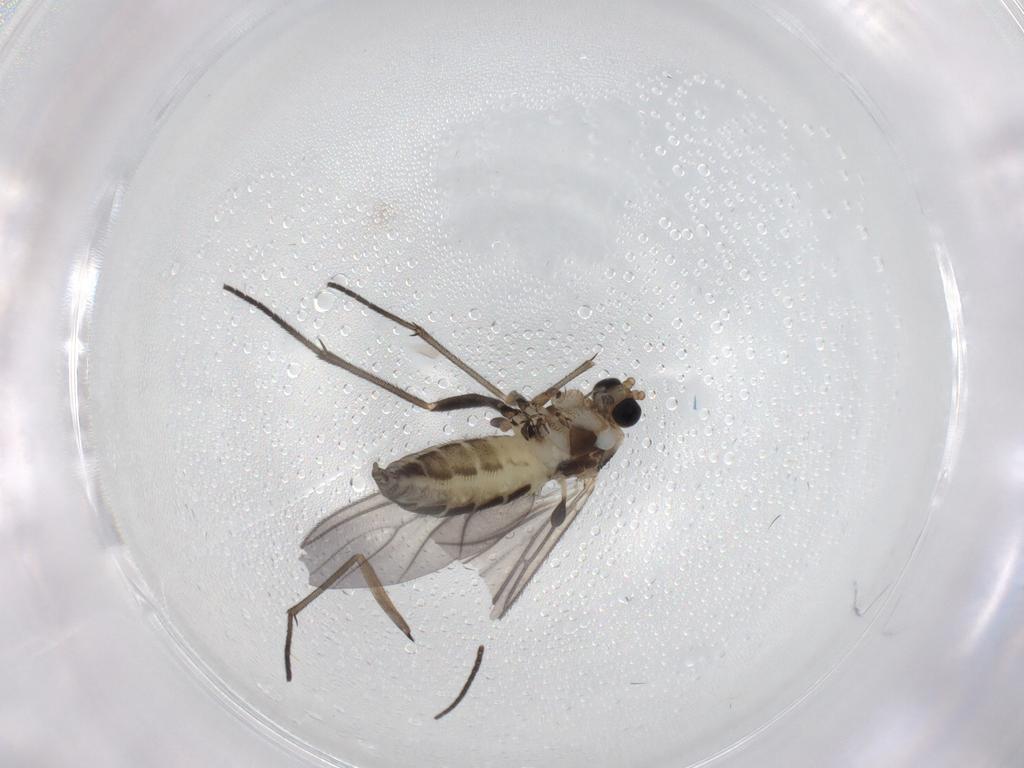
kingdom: Animalia
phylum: Arthropoda
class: Insecta
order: Diptera
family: Sciaridae
